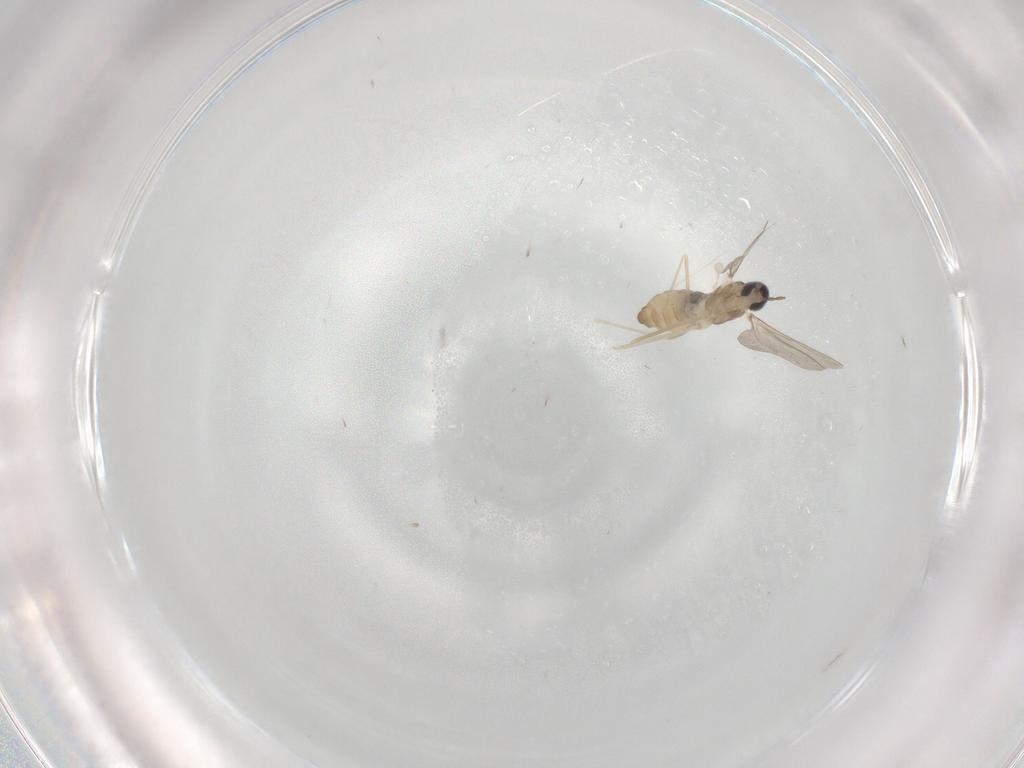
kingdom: Animalia
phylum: Arthropoda
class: Insecta
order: Diptera
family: Cecidomyiidae
